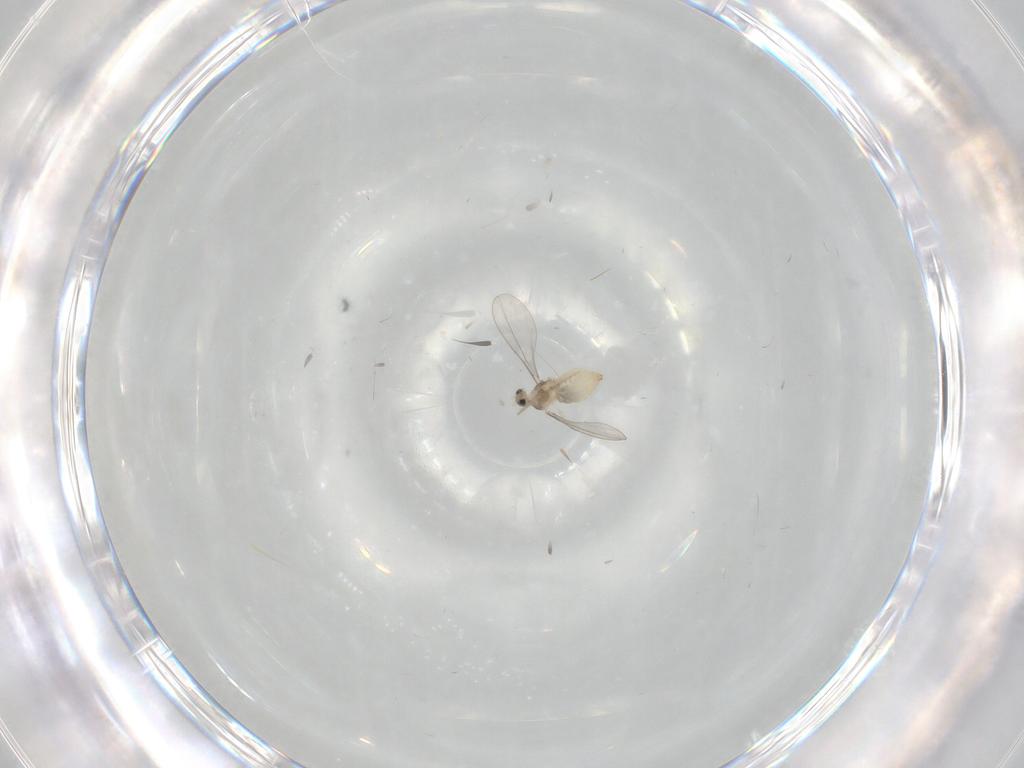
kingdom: Animalia
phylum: Arthropoda
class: Insecta
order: Diptera
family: Cecidomyiidae
